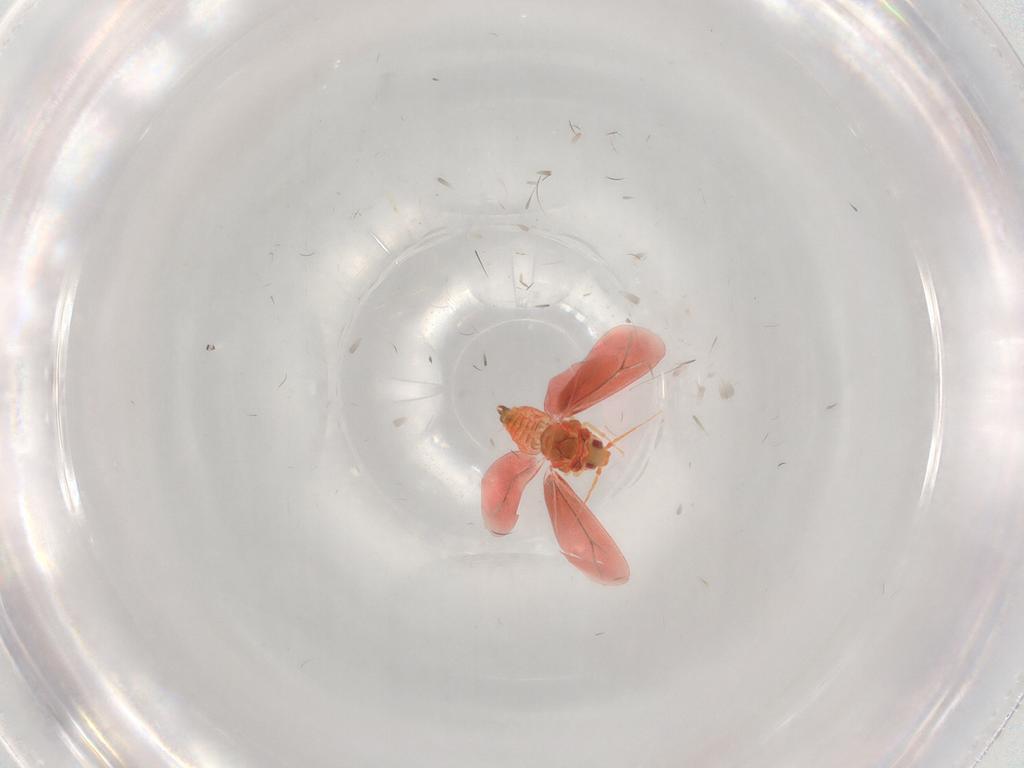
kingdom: Animalia
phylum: Arthropoda
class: Insecta
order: Hemiptera
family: Aleyrodidae
